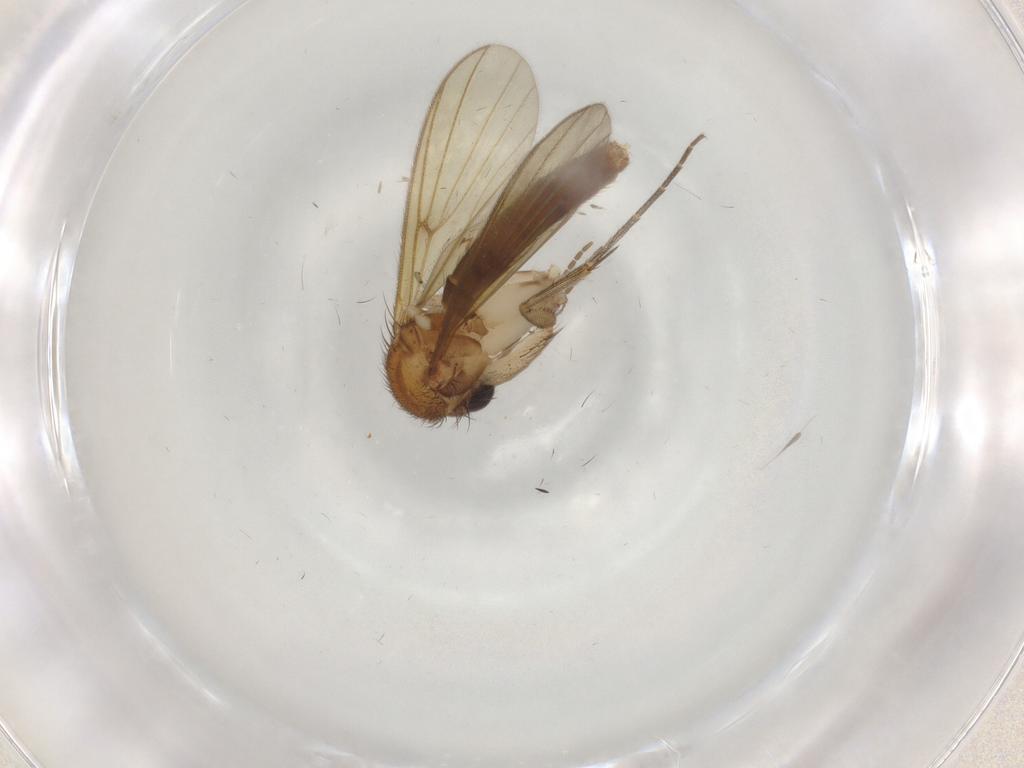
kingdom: Animalia
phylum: Arthropoda
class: Insecta
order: Diptera
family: Mycetophilidae
